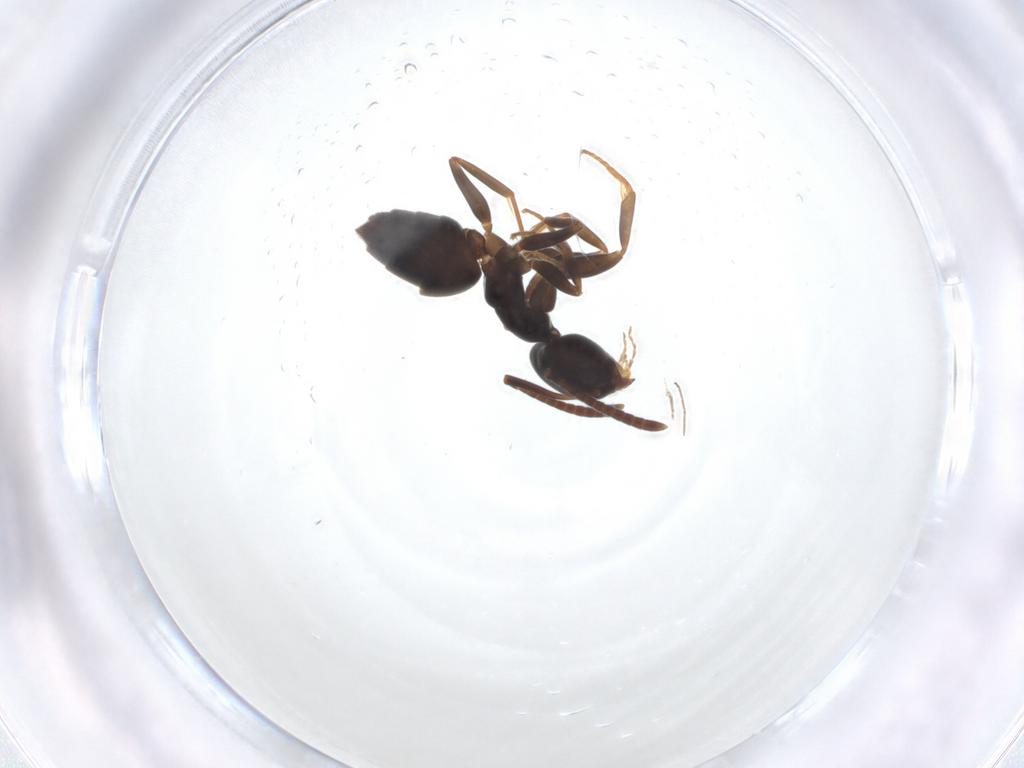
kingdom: Animalia
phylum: Arthropoda
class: Insecta
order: Hymenoptera
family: Formicidae
